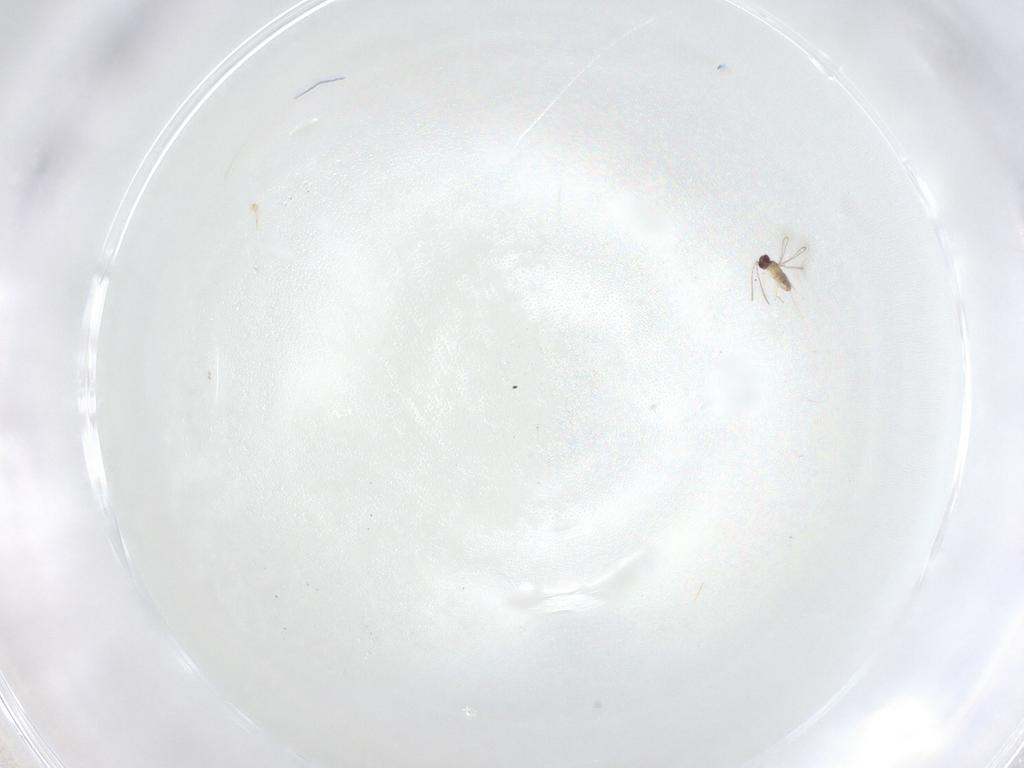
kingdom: Animalia
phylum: Arthropoda
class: Insecta
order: Hymenoptera
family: Mymaridae
